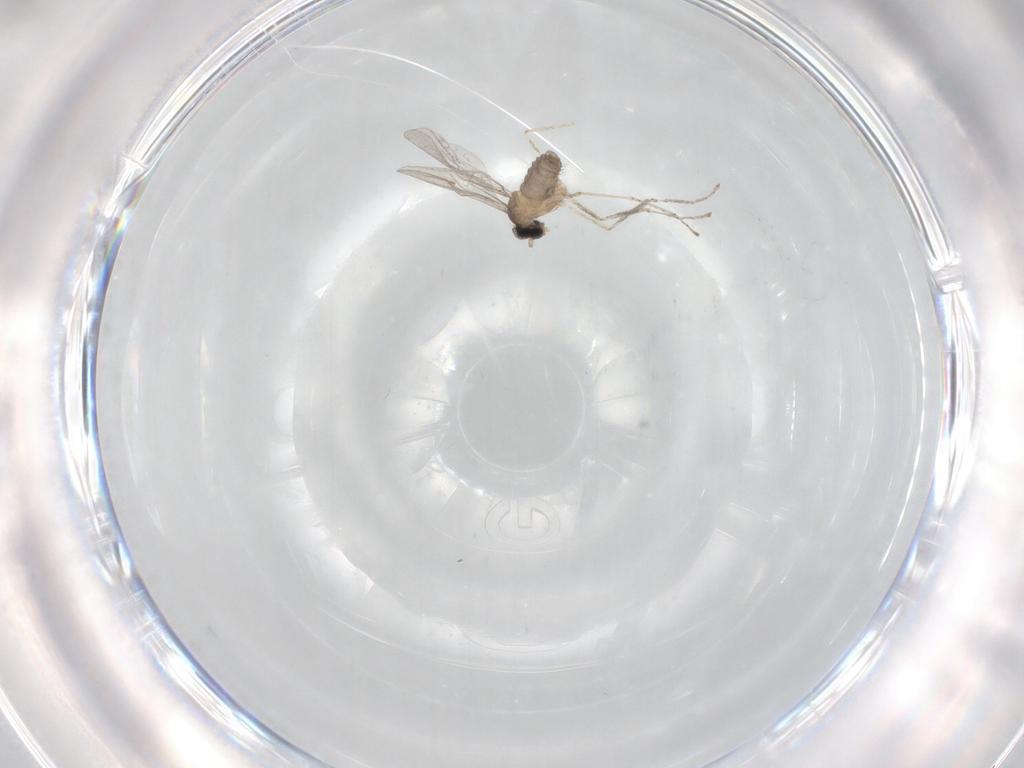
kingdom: Animalia
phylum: Arthropoda
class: Insecta
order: Diptera
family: Cecidomyiidae
